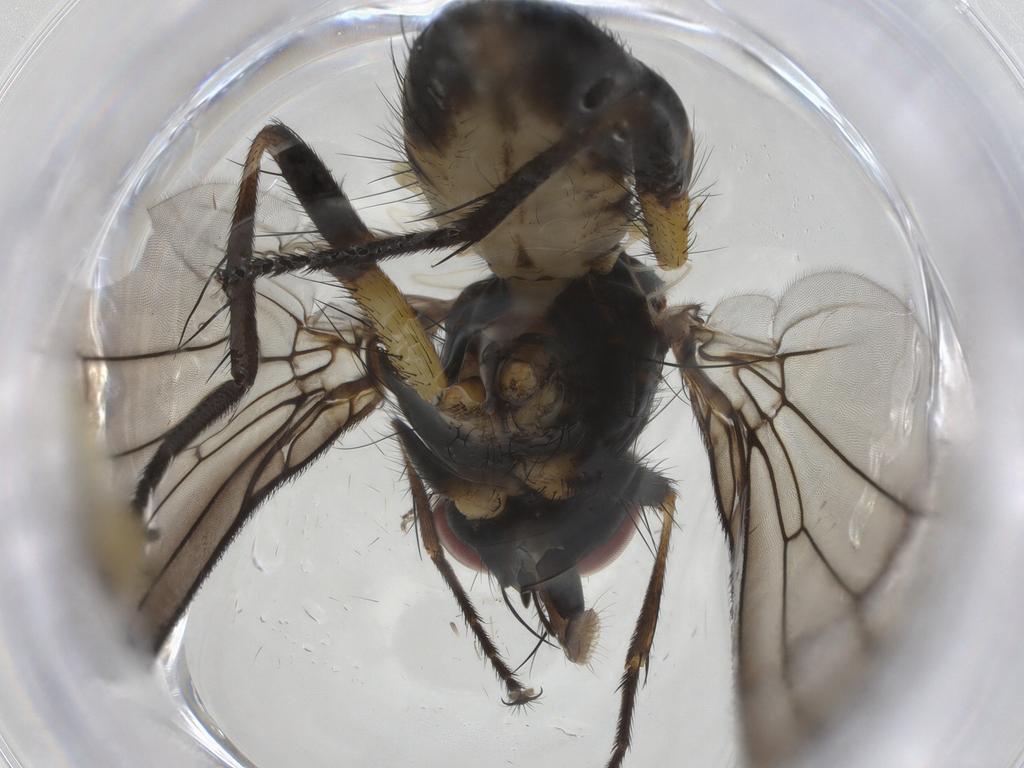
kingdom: Animalia
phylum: Arthropoda
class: Insecta
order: Diptera
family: Muscidae
